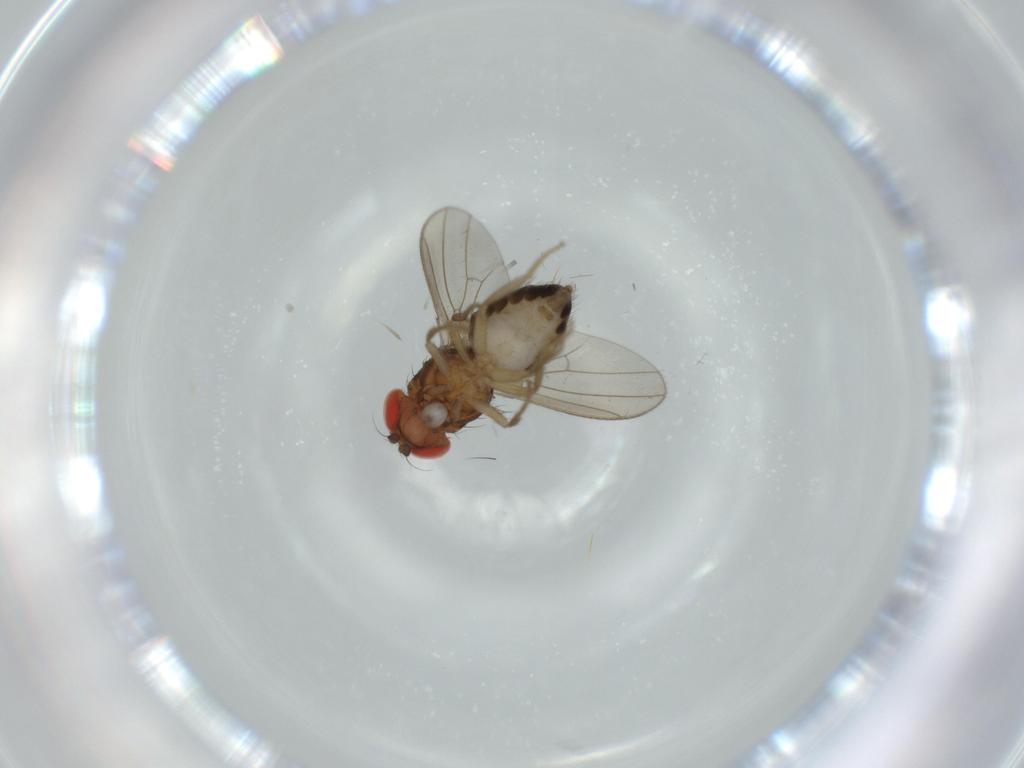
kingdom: Animalia
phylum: Arthropoda
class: Insecta
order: Diptera
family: Drosophilidae
